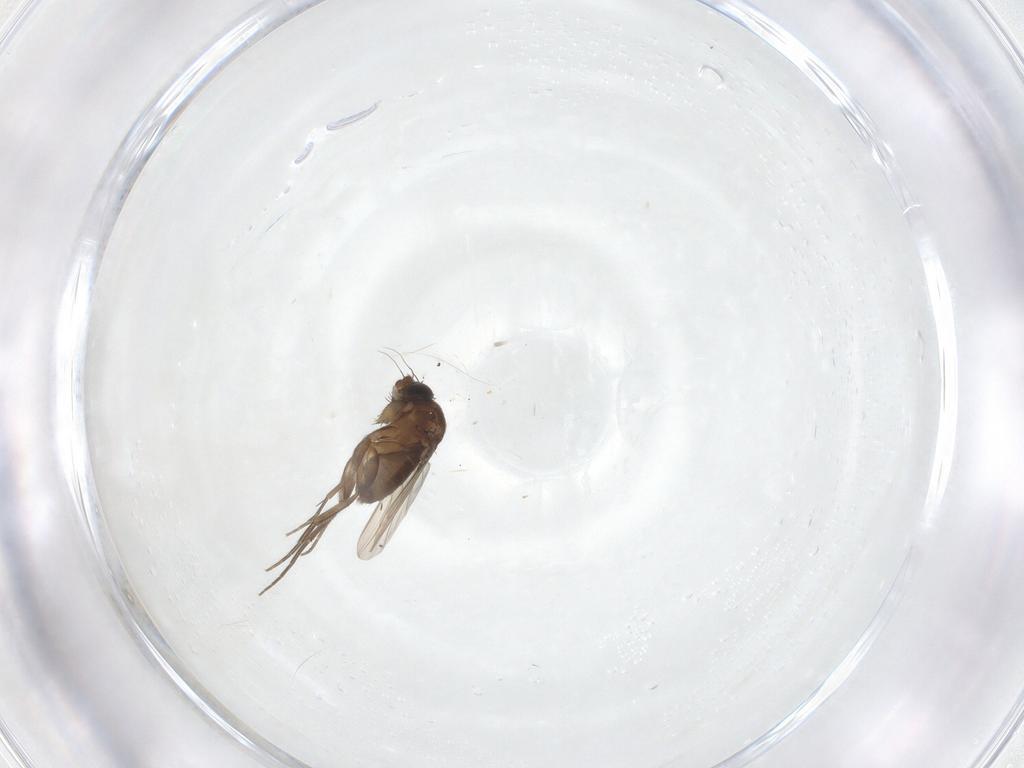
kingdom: Animalia
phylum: Arthropoda
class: Insecta
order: Diptera
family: Phoridae
